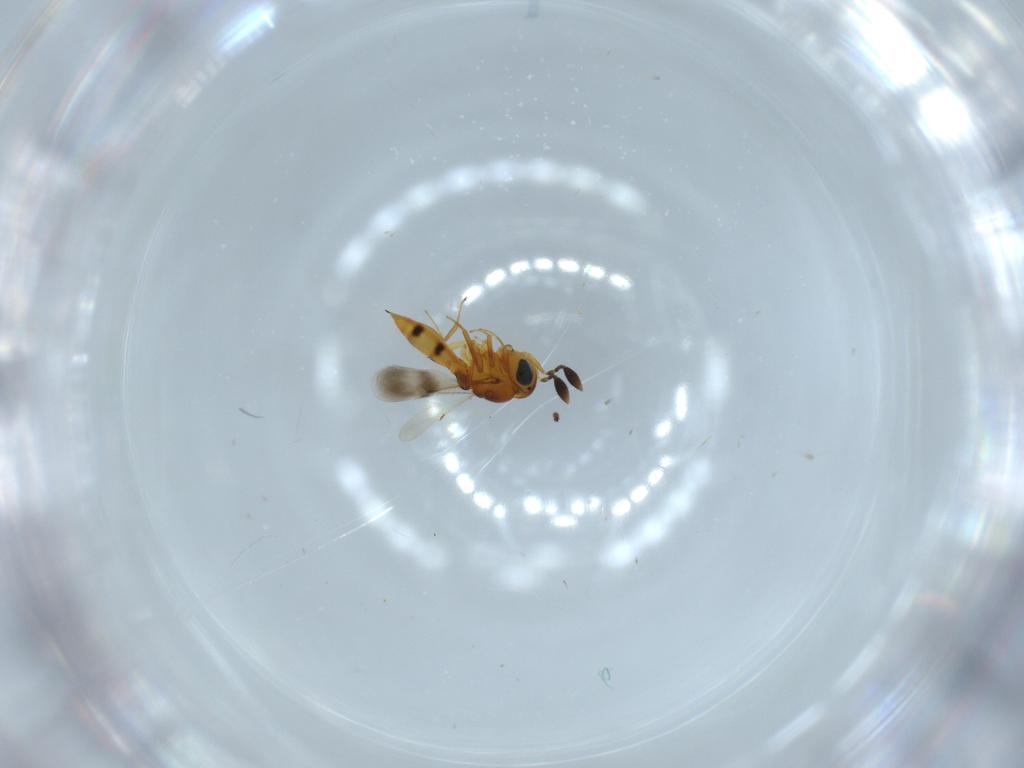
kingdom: Animalia
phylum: Arthropoda
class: Insecta
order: Hymenoptera
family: Scelionidae
